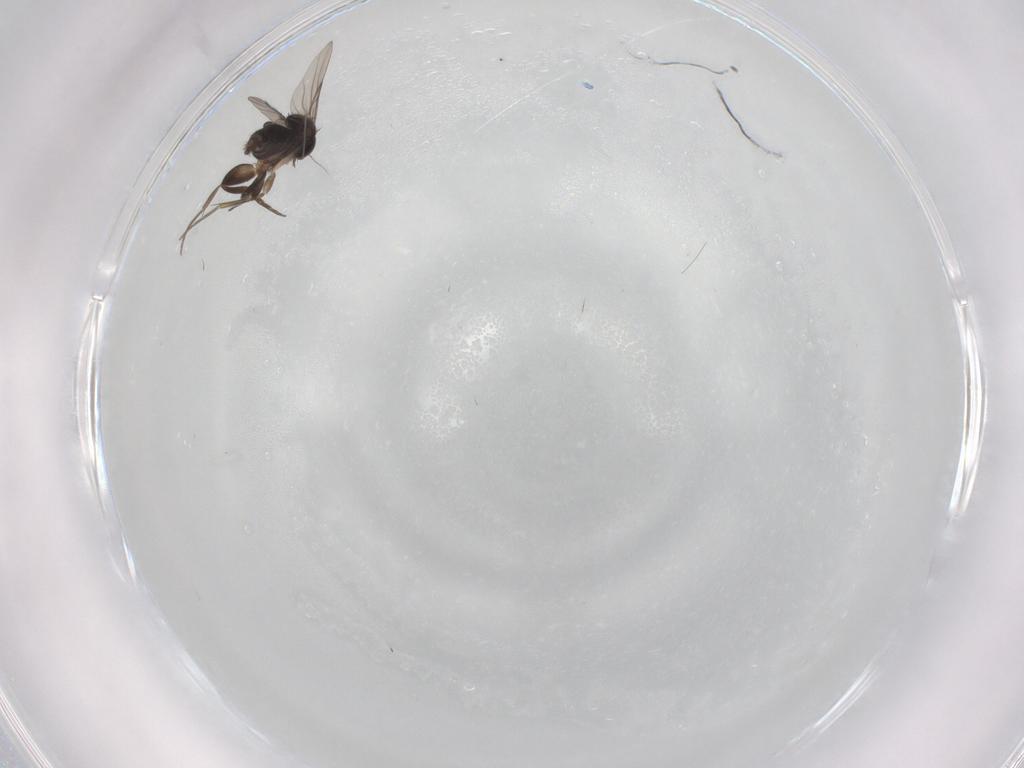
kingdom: Animalia
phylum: Arthropoda
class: Insecta
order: Diptera
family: Phoridae
